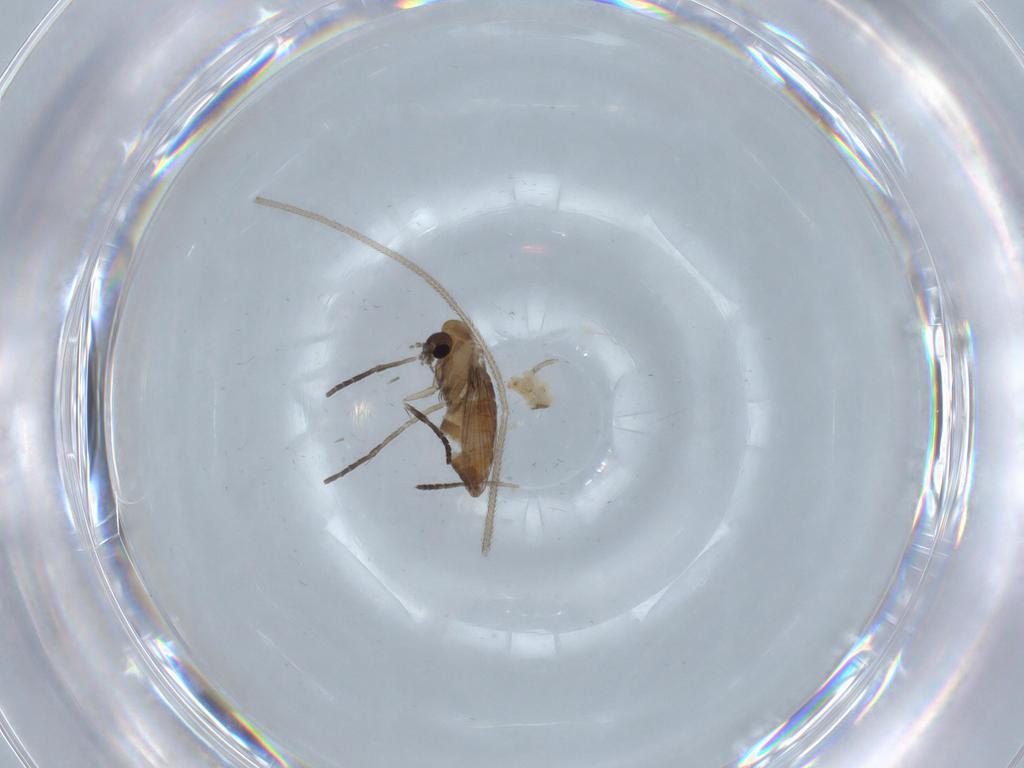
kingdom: Animalia
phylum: Arthropoda
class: Insecta
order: Diptera
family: Psychodidae
